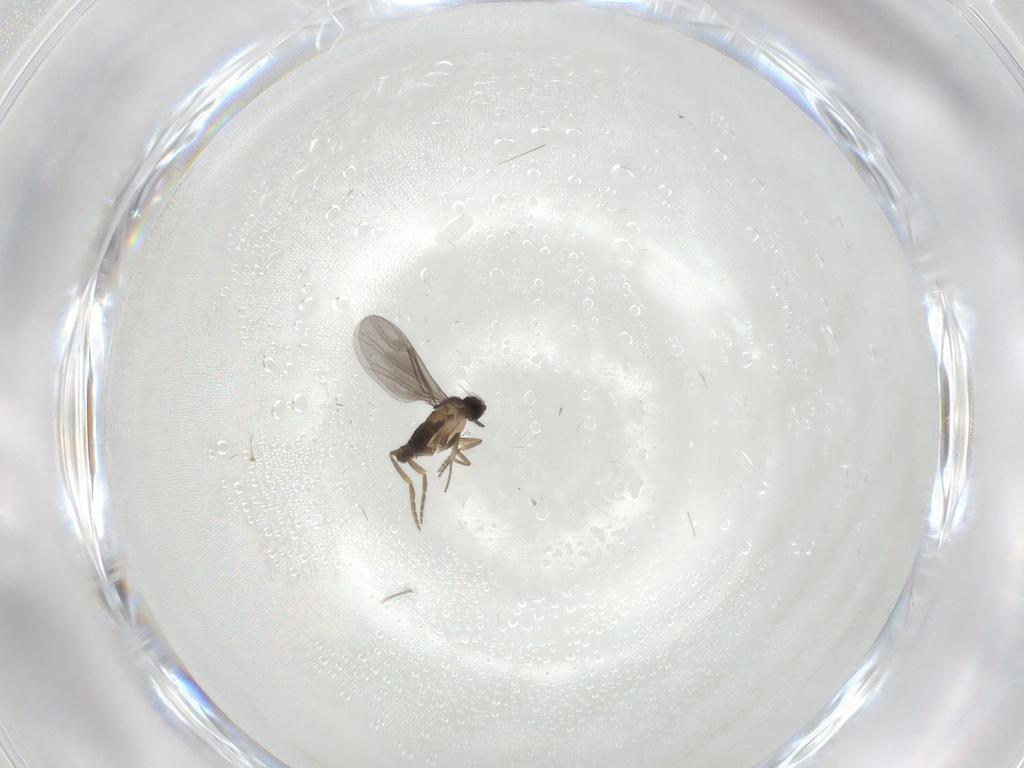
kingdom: Animalia
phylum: Arthropoda
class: Insecta
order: Diptera
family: Chironomidae
